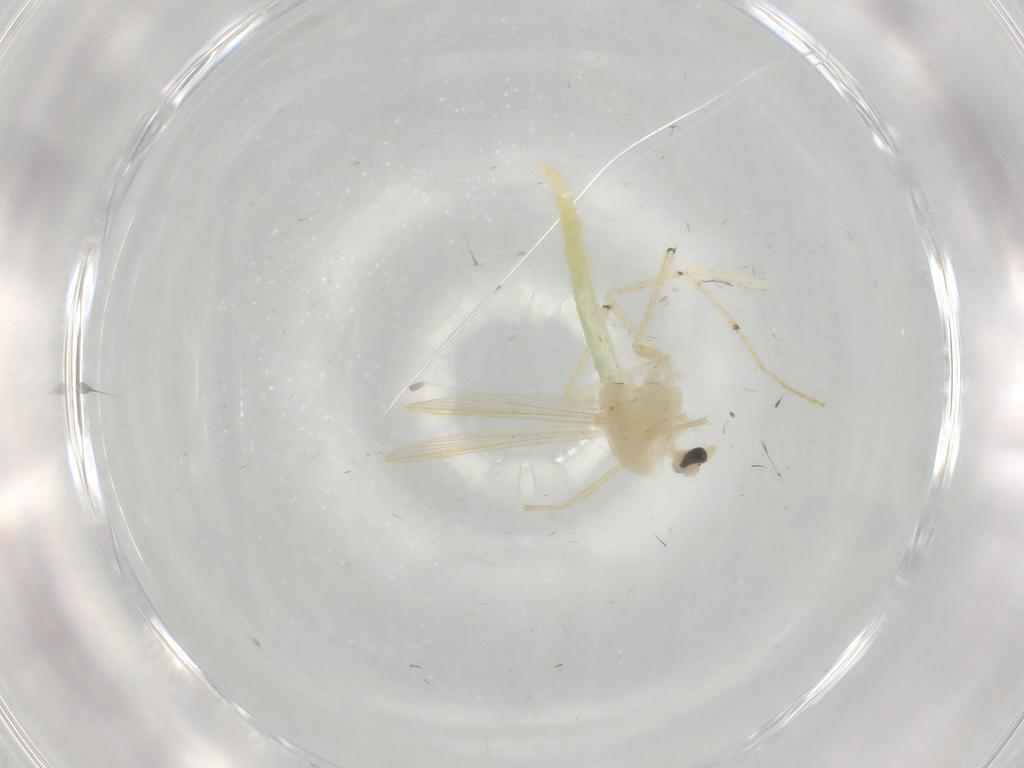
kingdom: Animalia
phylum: Arthropoda
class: Insecta
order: Diptera
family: Chironomidae
